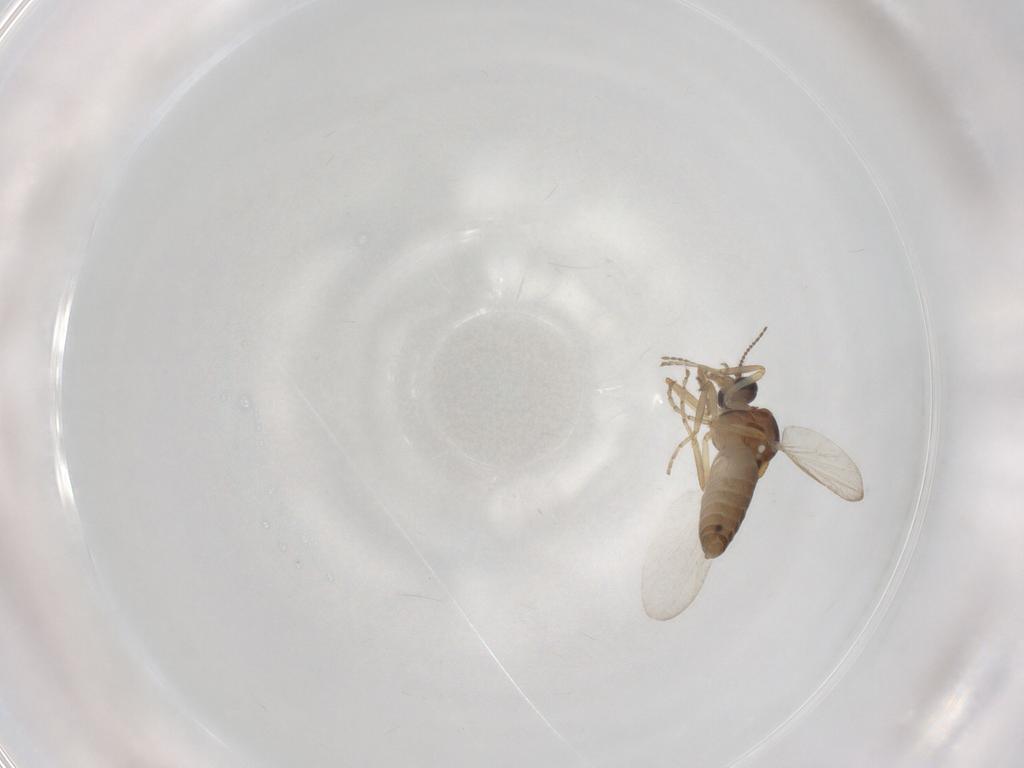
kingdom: Animalia
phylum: Arthropoda
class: Insecta
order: Diptera
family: Ceratopogonidae
